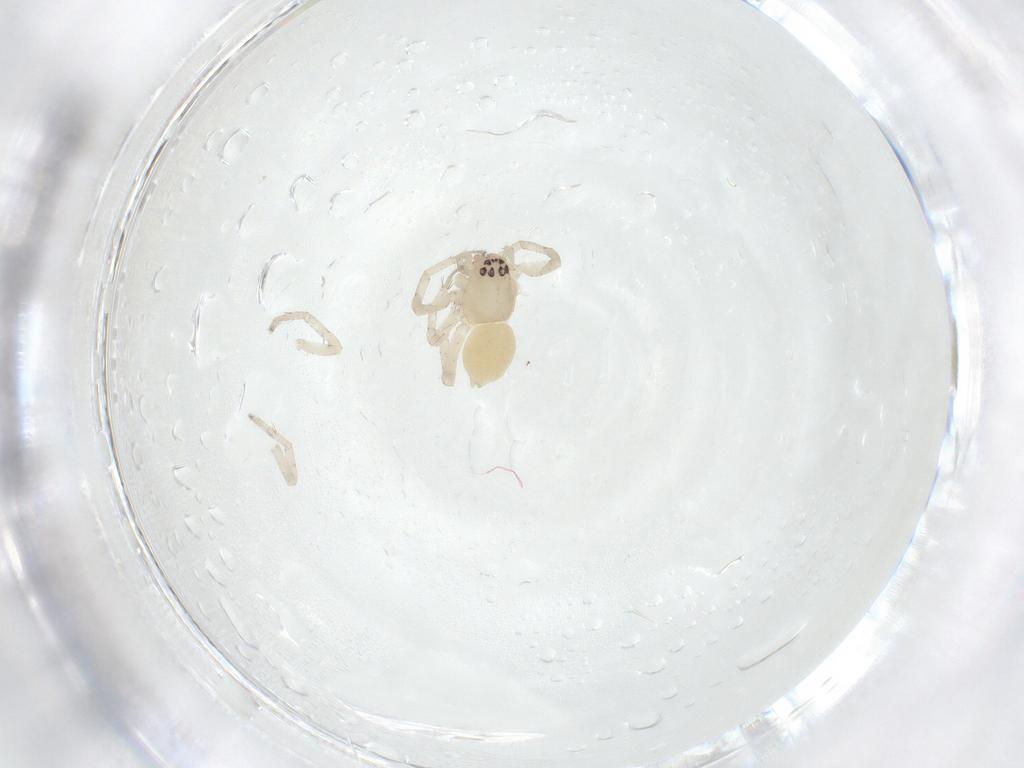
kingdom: Animalia
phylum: Arthropoda
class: Arachnida
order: Araneae
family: Anyphaenidae
